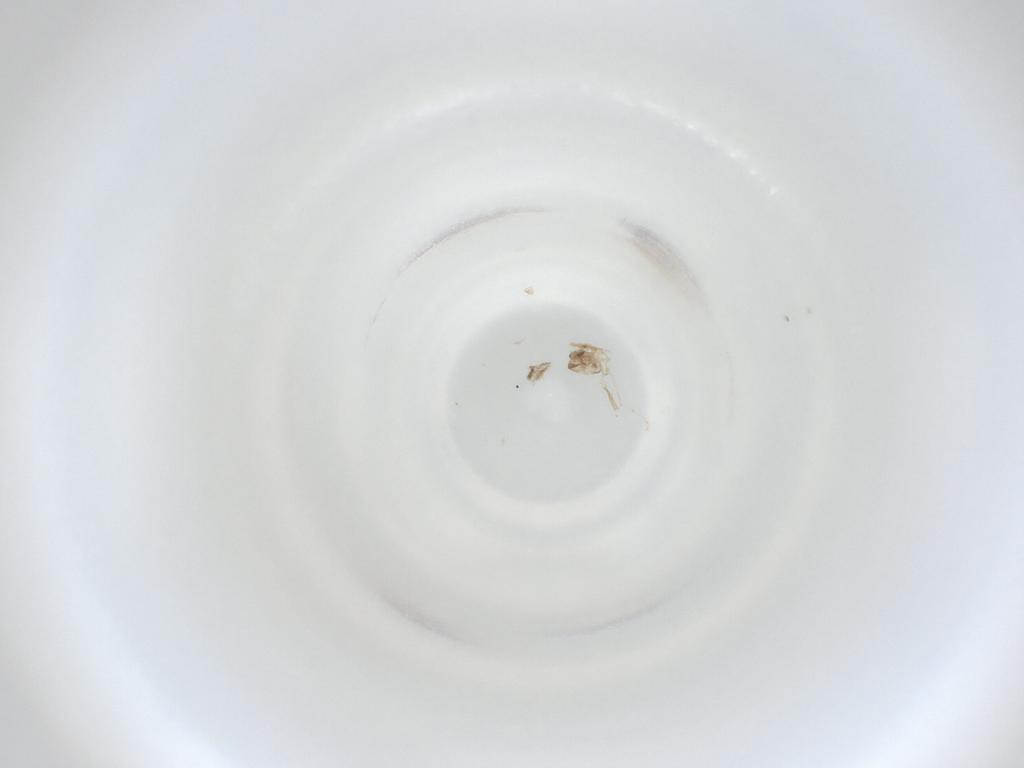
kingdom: Animalia
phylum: Arthropoda
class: Insecta
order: Diptera
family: Cecidomyiidae
